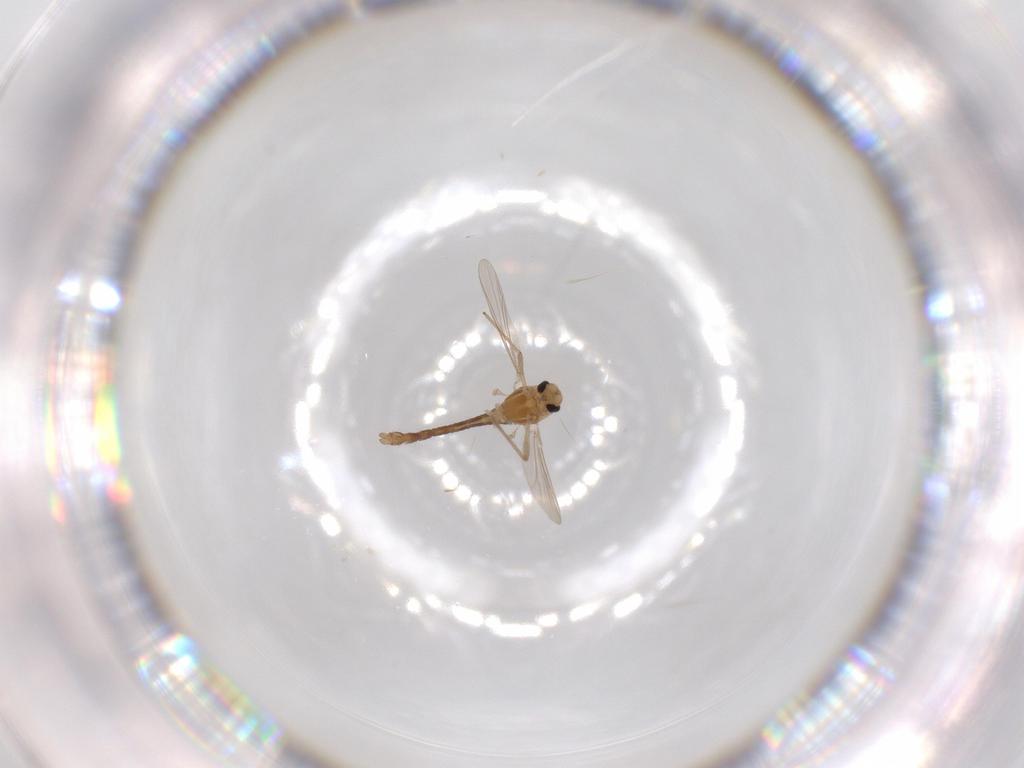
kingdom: Animalia
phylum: Arthropoda
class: Insecta
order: Diptera
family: Chironomidae
